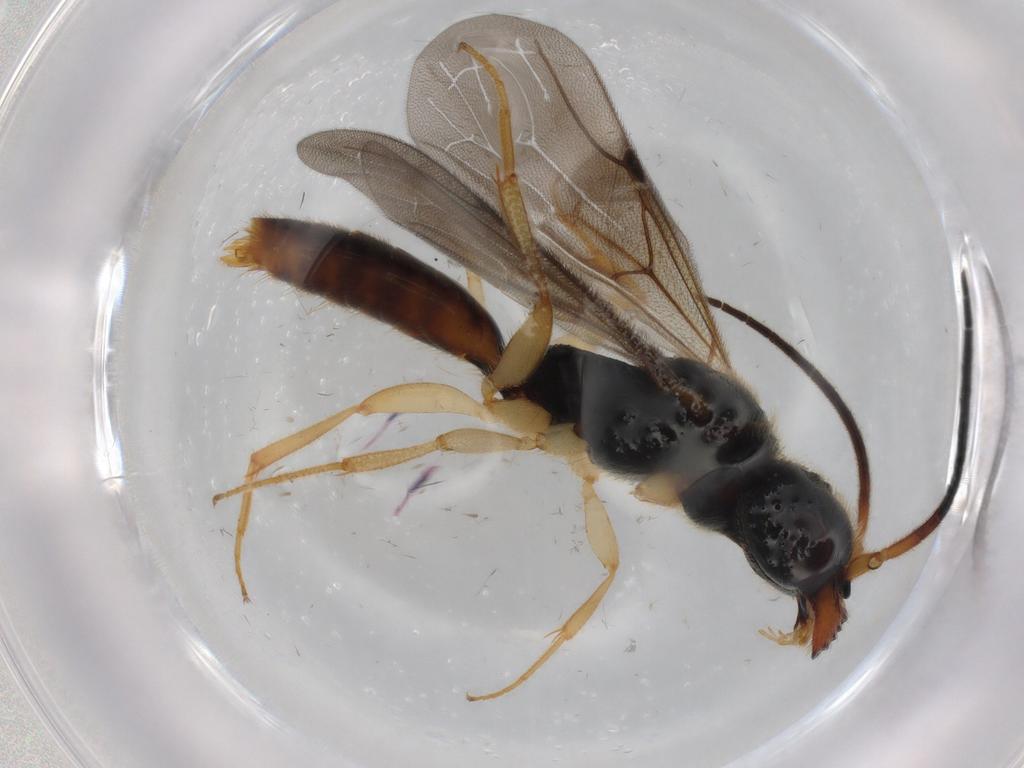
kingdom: Animalia
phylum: Arthropoda
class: Insecta
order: Hymenoptera
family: Bethylidae
